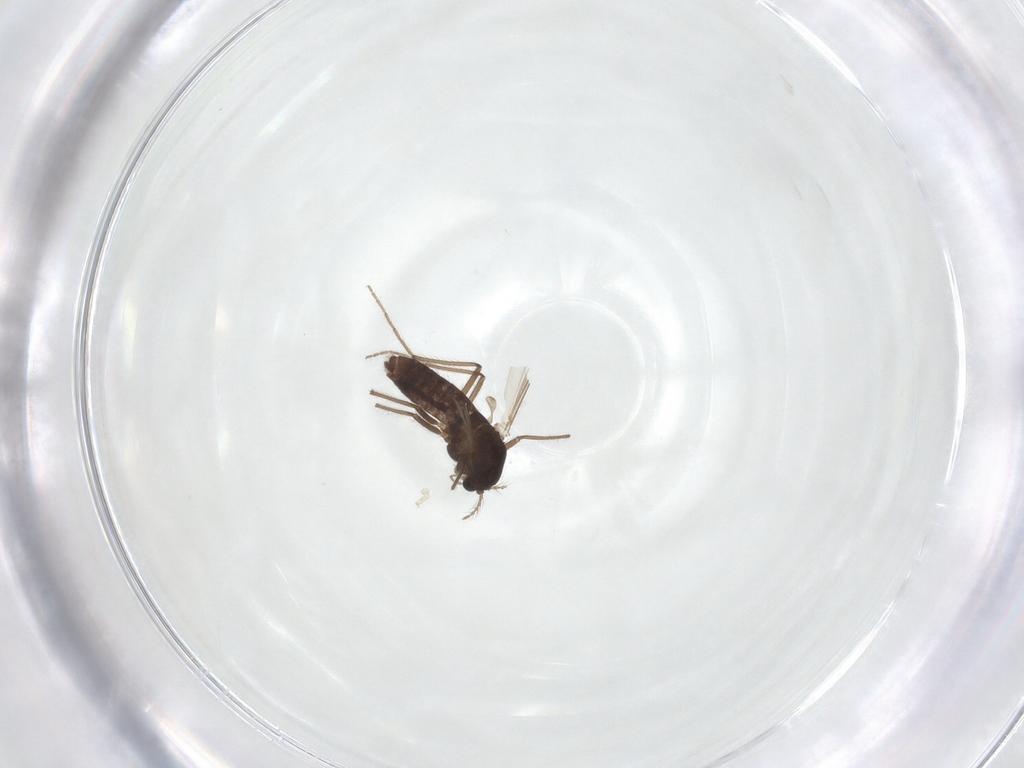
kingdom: Animalia
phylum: Arthropoda
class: Insecta
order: Diptera
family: Chironomidae
